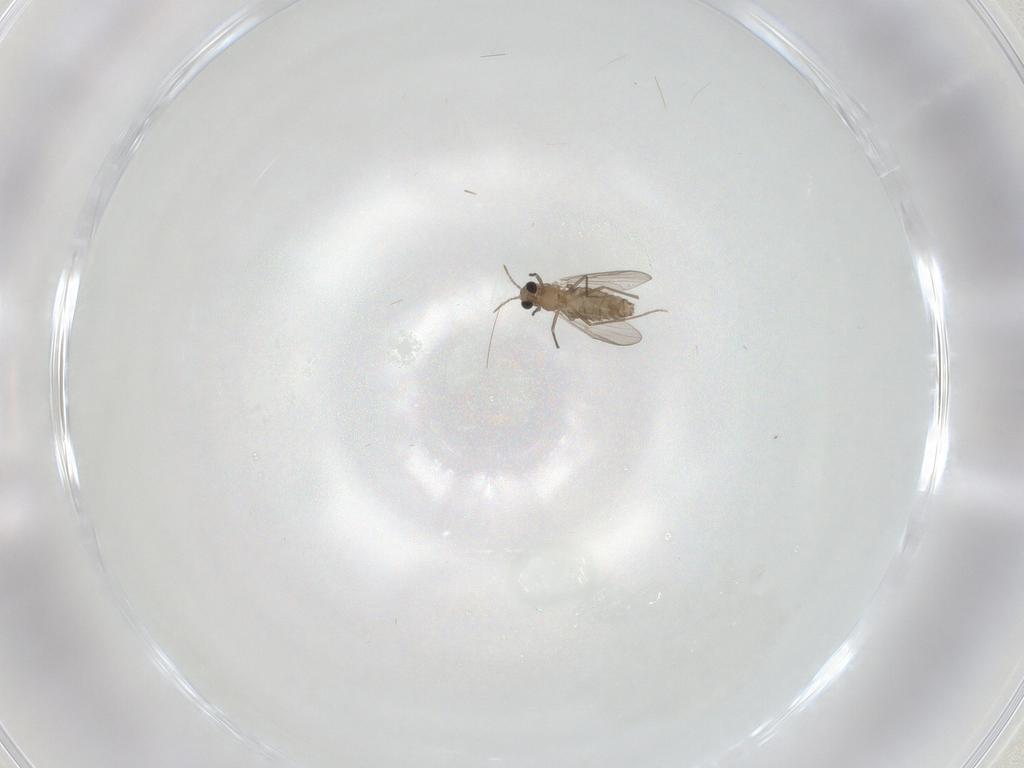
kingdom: Animalia
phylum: Arthropoda
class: Insecta
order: Diptera
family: Chironomidae
